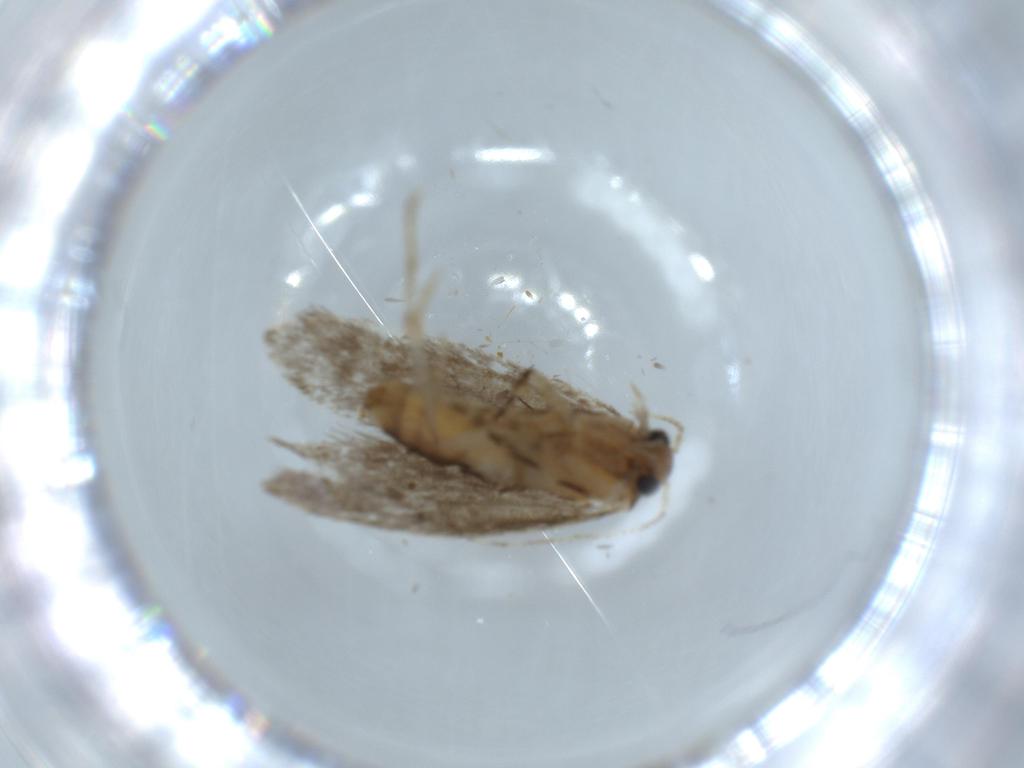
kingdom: Animalia
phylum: Arthropoda
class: Insecta
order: Lepidoptera
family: Tineidae
